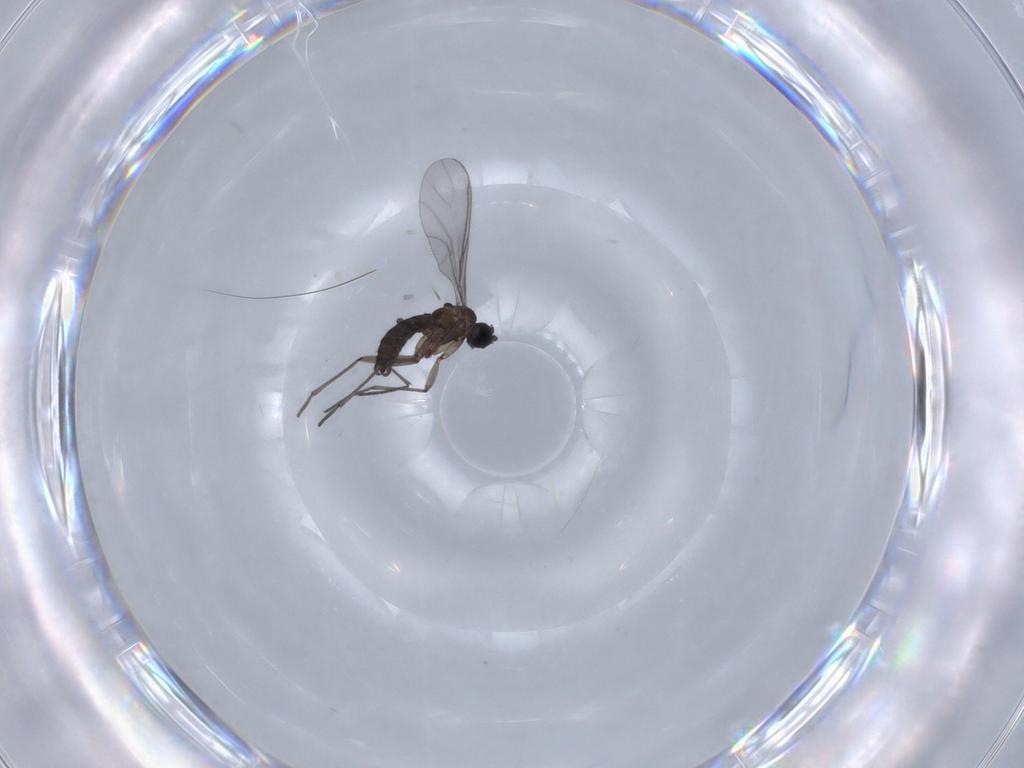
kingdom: Animalia
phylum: Arthropoda
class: Insecta
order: Diptera
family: Sciaridae
